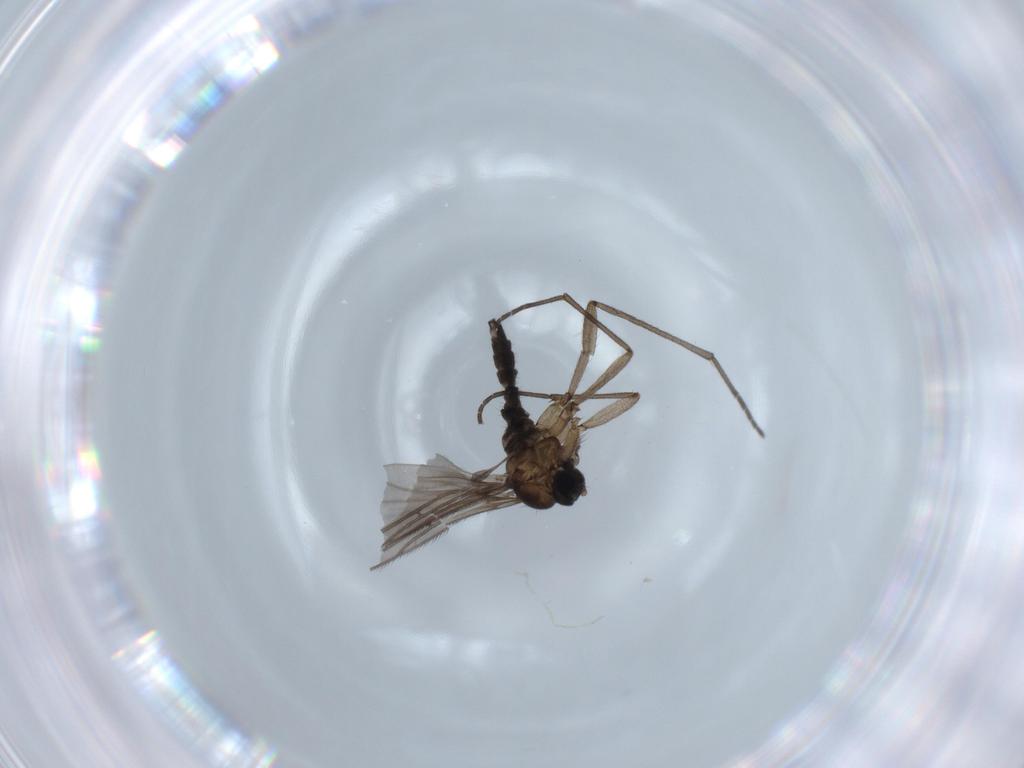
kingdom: Animalia
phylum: Arthropoda
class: Insecta
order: Diptera
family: Sciaridae
